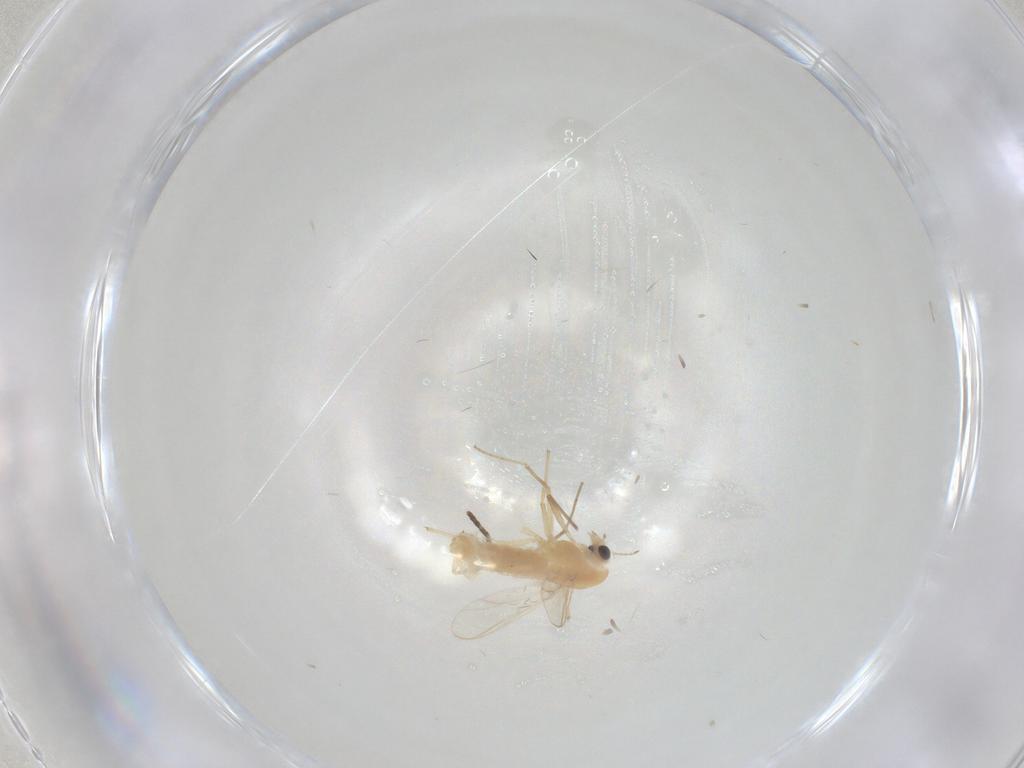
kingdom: Animalia
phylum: Arthropoda
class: Insecta
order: Diptera
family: Chironomidae
